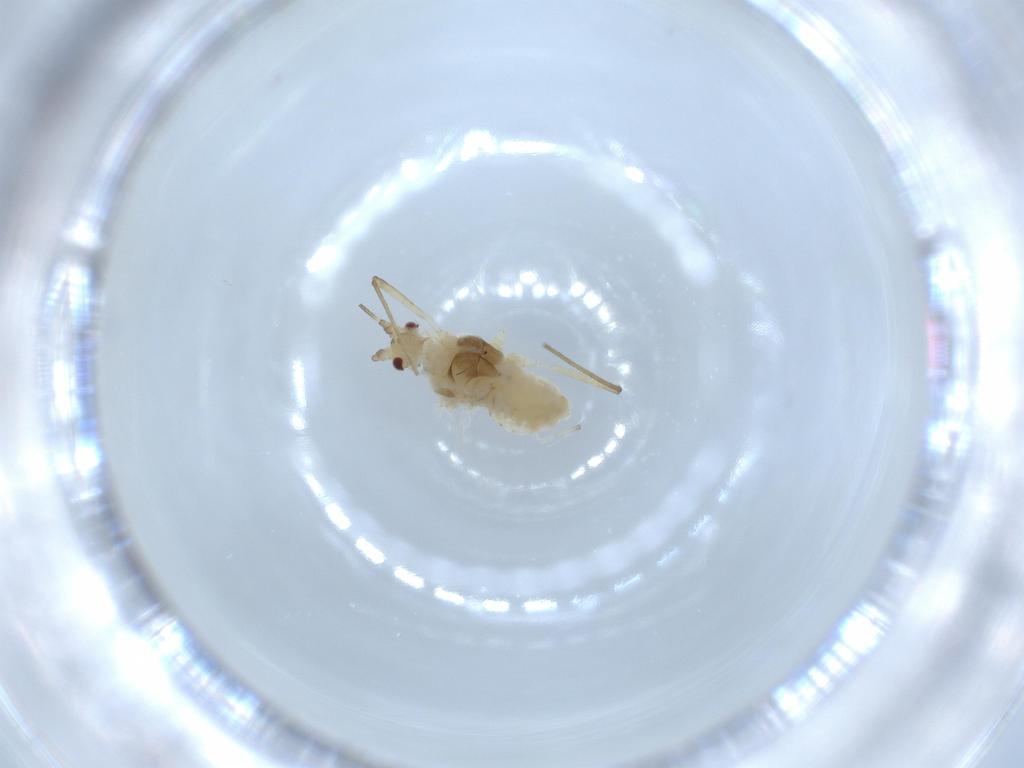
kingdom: Animalia
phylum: Arthropoda
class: Insecta
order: Hemiptera
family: Aphididae
